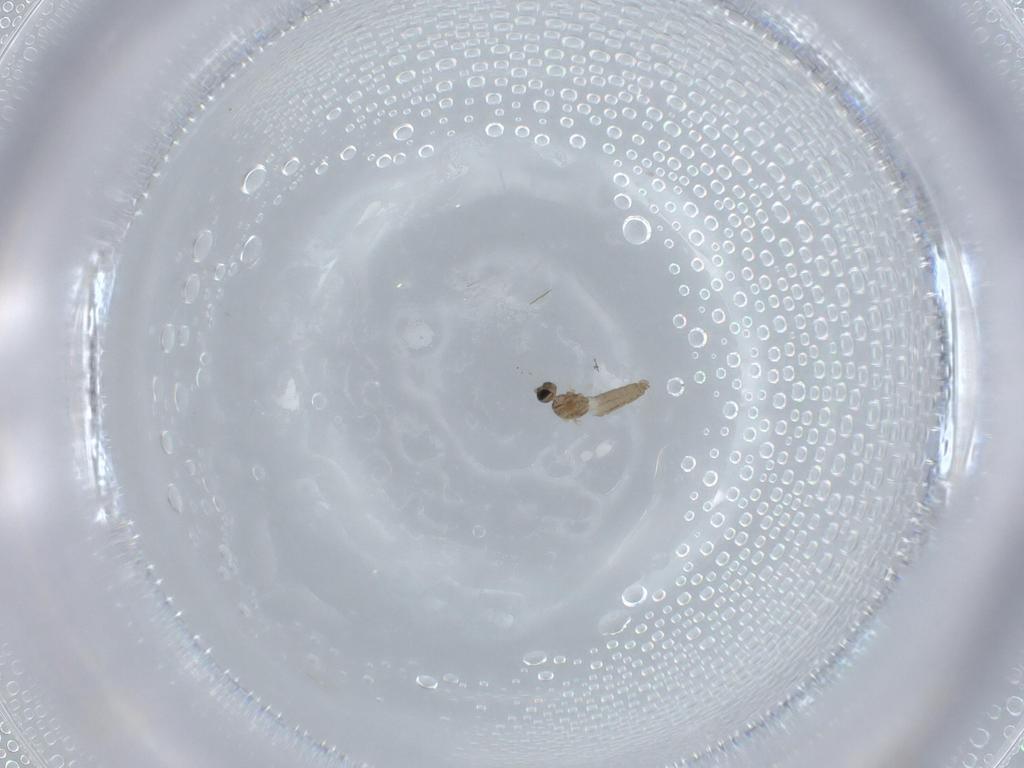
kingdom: Animalia
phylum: Arthropoda
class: Insecta
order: Diptera
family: Cecidomyiidae
